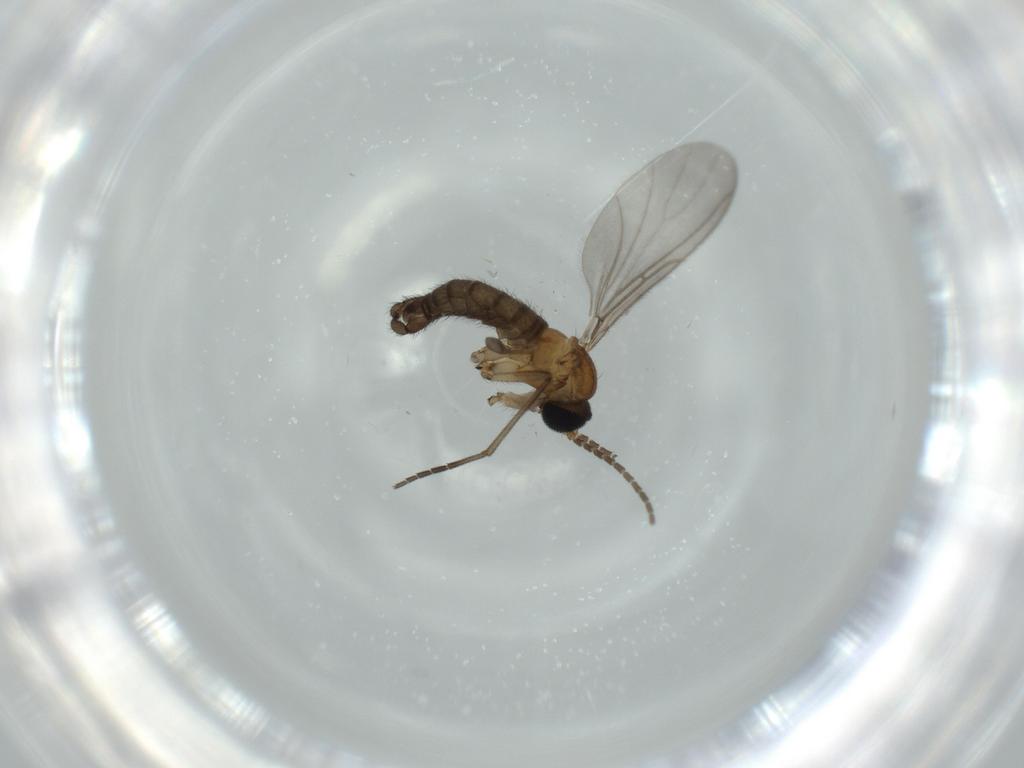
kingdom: Animalia
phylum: Arthropoda
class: Insecta
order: Diptera
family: Sciaridae
